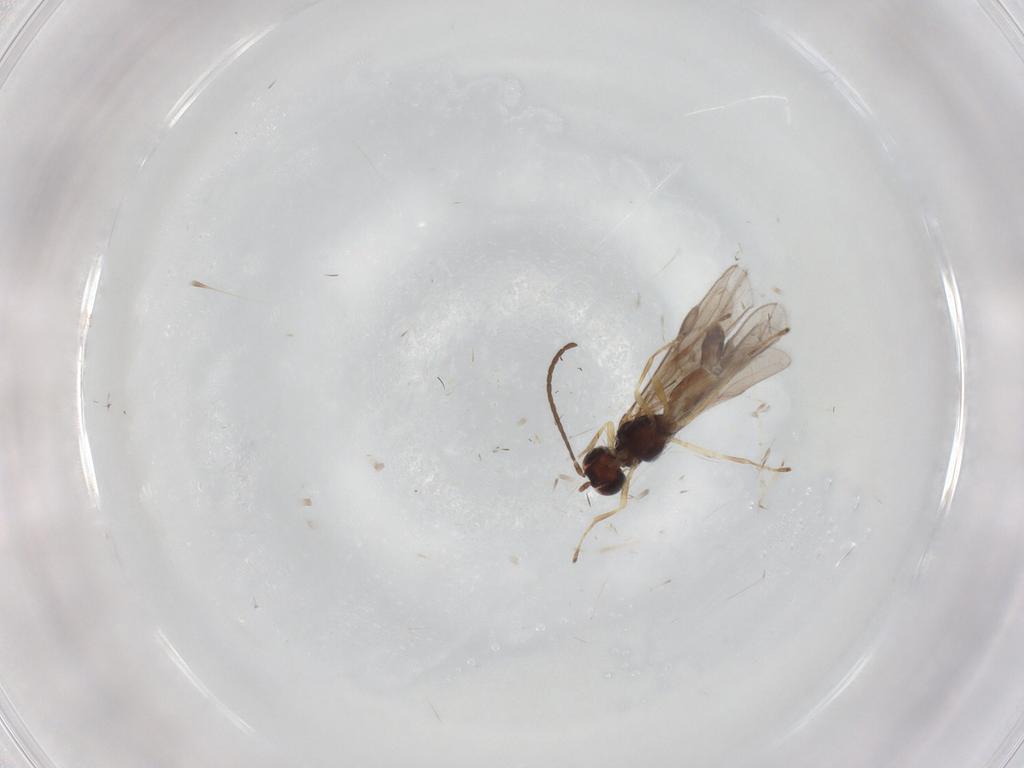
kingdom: Animalia
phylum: Arthropoda
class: Insecta
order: Hymenoptera
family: Braconidae
